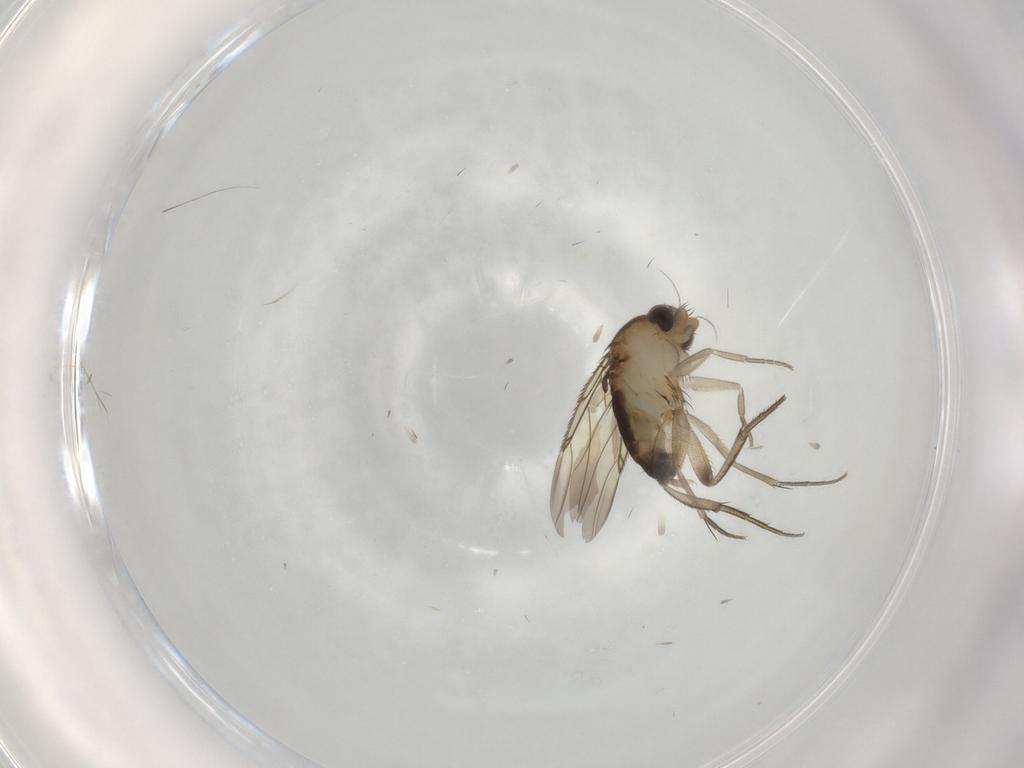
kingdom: Animalia
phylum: Arthropoda
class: Insecta
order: Diptera
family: Phoridae
